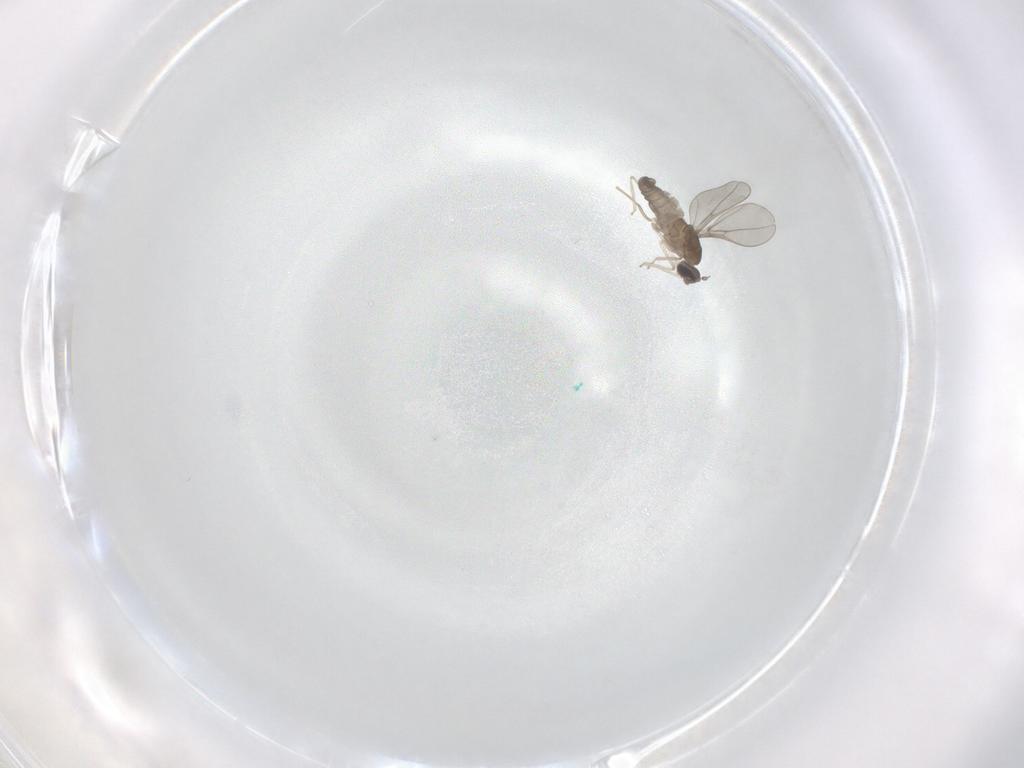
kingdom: Animalia
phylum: Arthropoda
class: Insecta
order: Diptera
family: Cecidomyiidae
